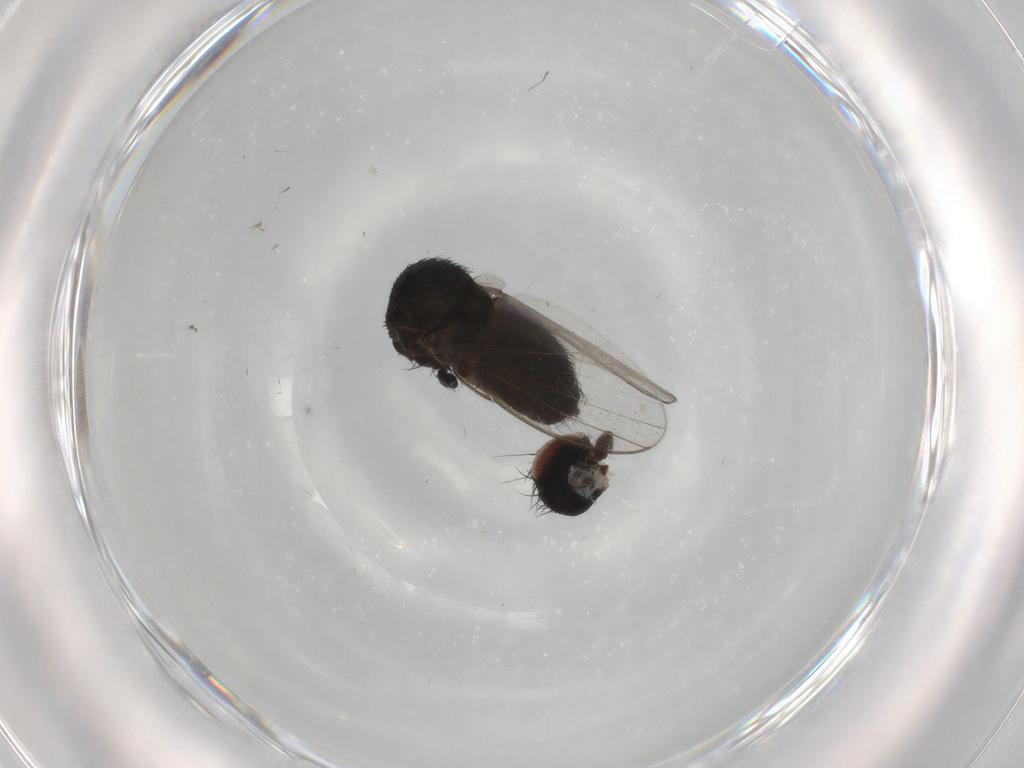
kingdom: Animalia
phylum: Arthropoda
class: Insecta
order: Diptera
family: Milichiidae
